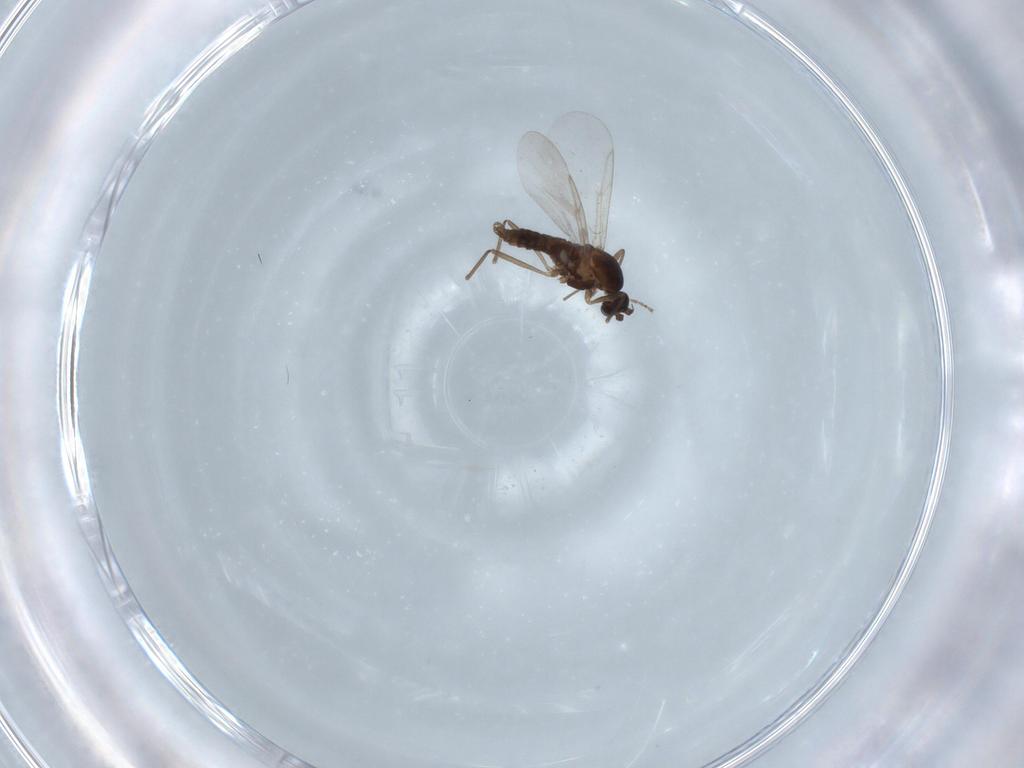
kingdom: Animalia
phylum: Arthropoda
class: Insecta
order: Diptera
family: Cecidomyiidae
